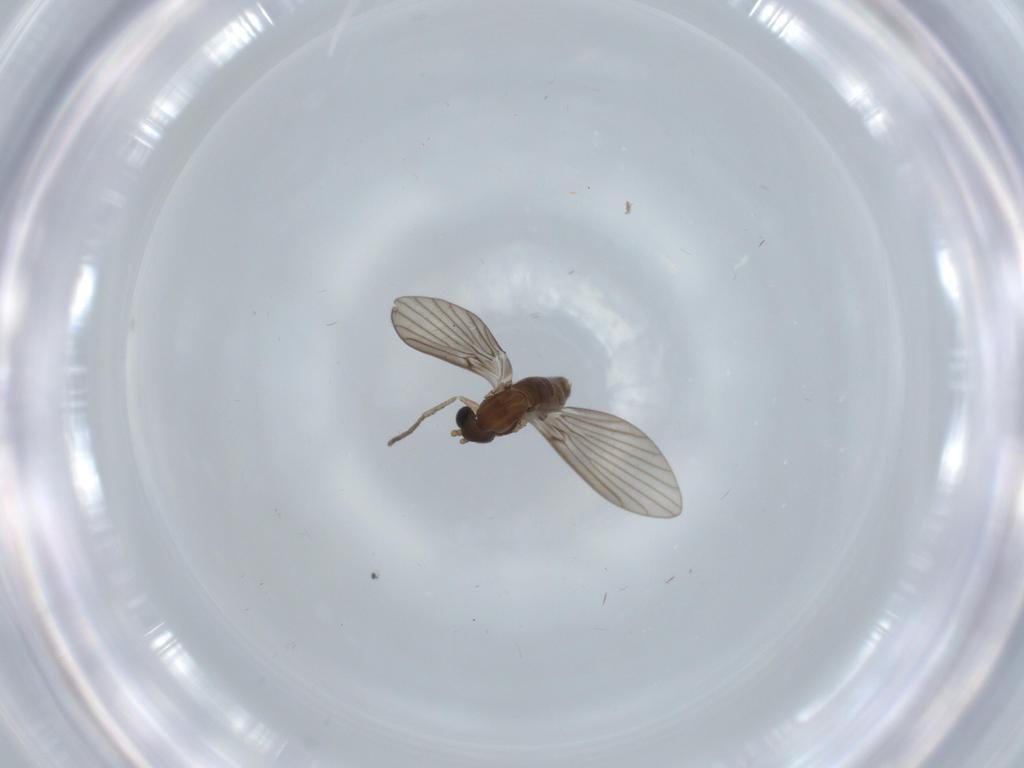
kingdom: Animalia
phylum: Arthropoda
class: Insecta
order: Diptera
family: Psychodidae
